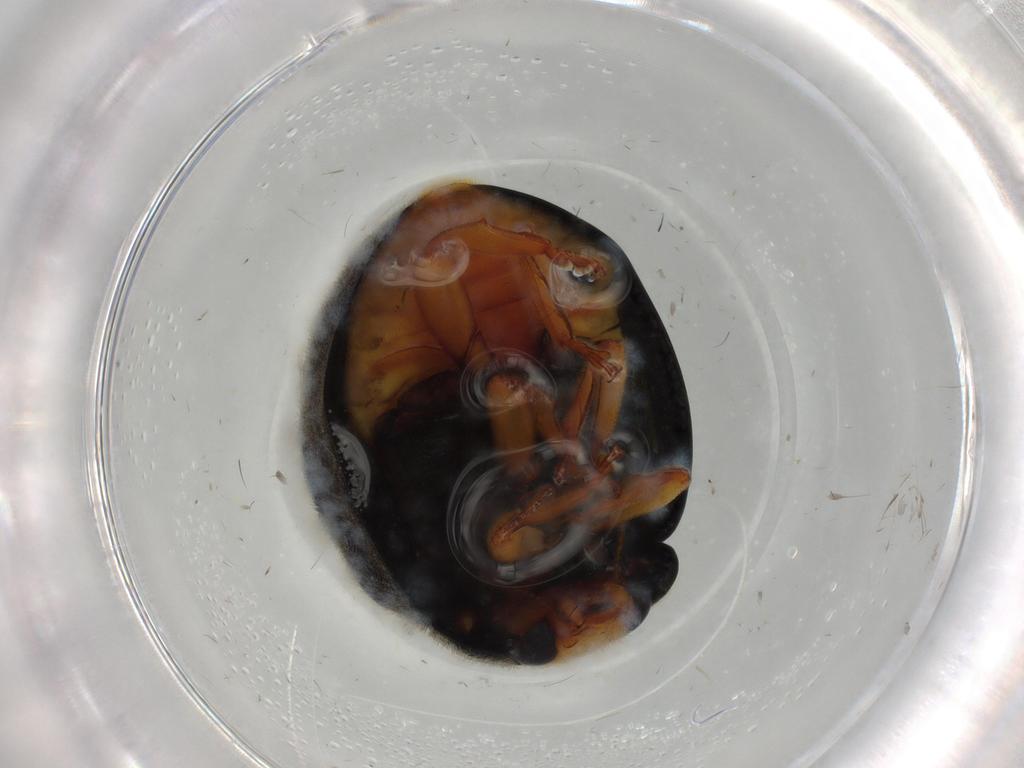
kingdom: Animalia
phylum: Arthropoda
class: Insecta
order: Coleoptera
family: Coccinellidae
